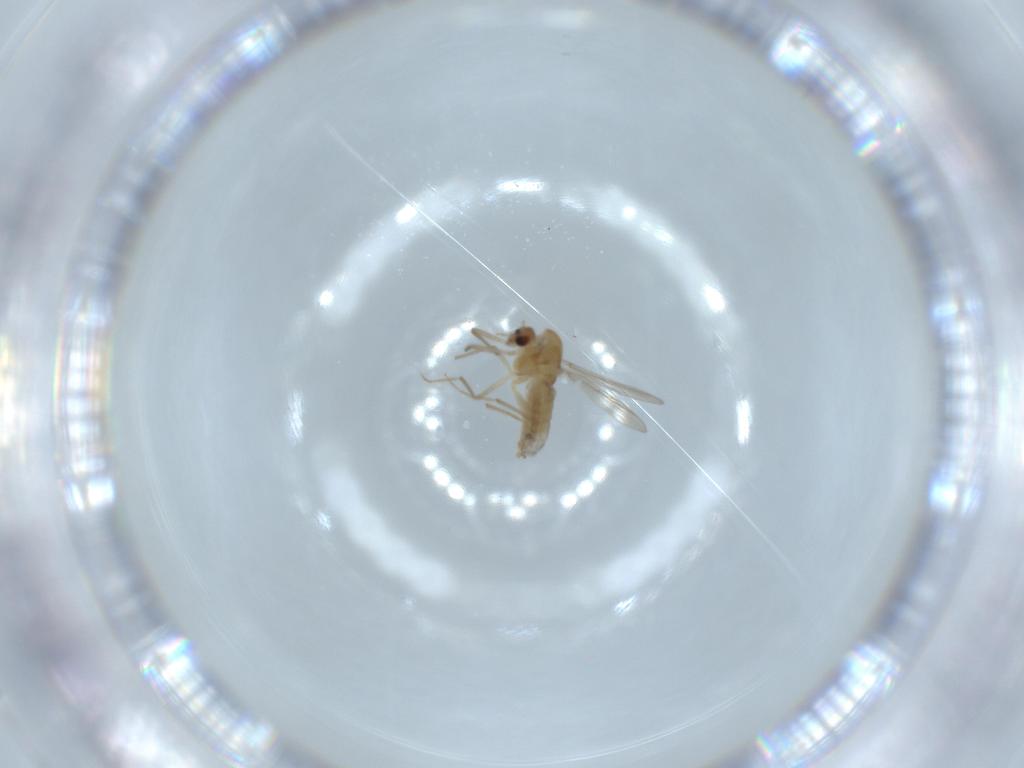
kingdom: Animalia
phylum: Arthropoda
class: Insecta
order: Diptera
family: Chironomidae
